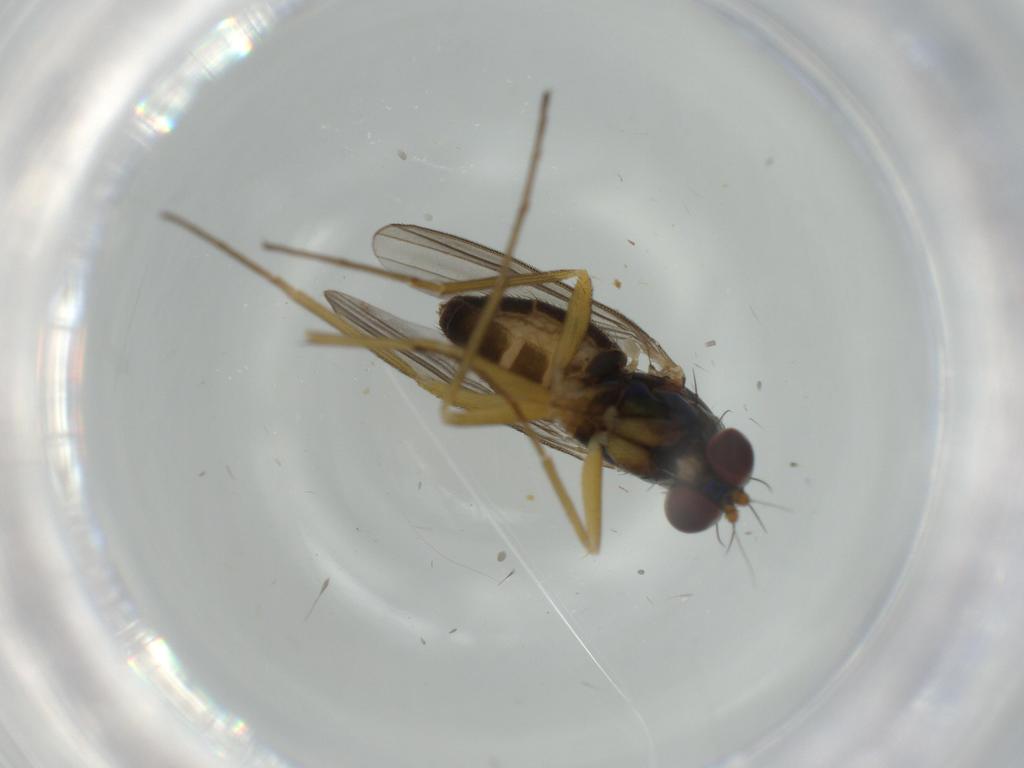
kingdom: Animalia
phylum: Arthropoda
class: Insecta
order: Diptera
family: Dolichopodidae
